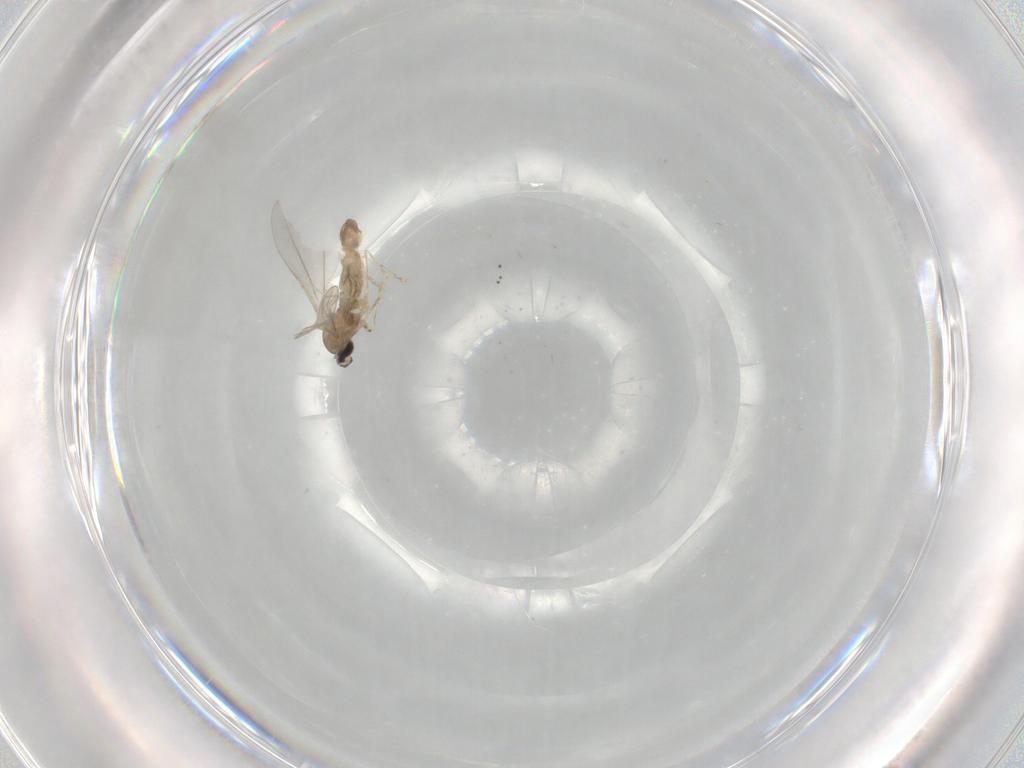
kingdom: Animalia
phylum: Arthropoda
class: Insecta
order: Diptera
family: Cecidomyiidae
